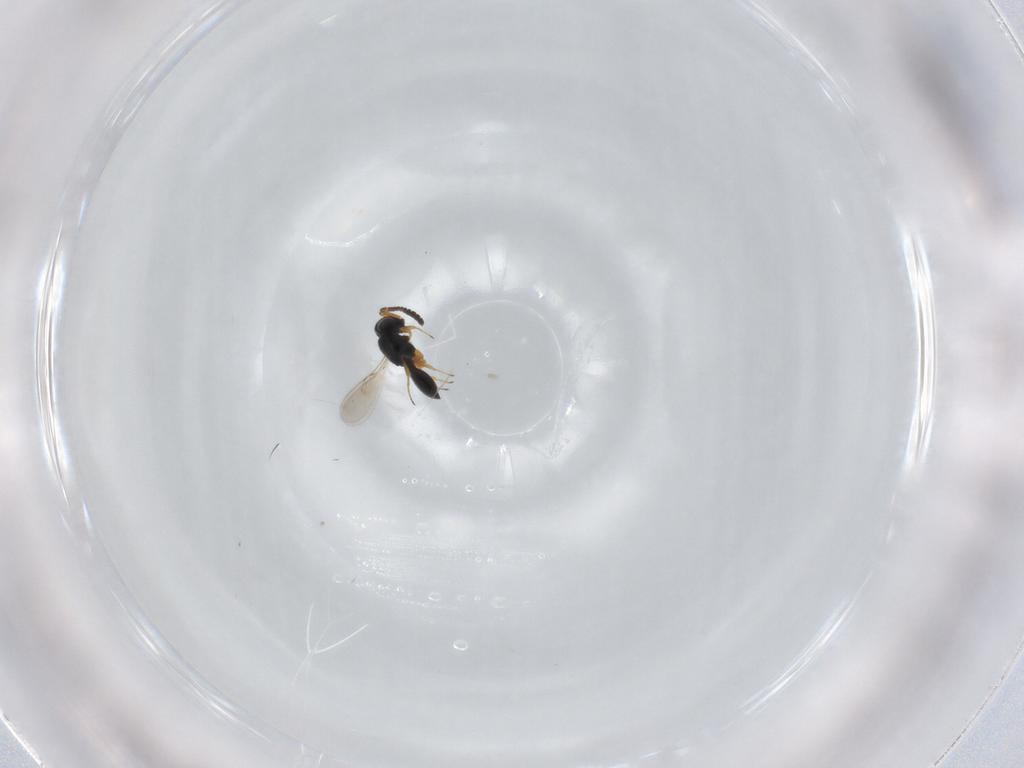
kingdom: Animalia
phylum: Arthropoda
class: Insecta
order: Hymenoptera
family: Scelionidae
